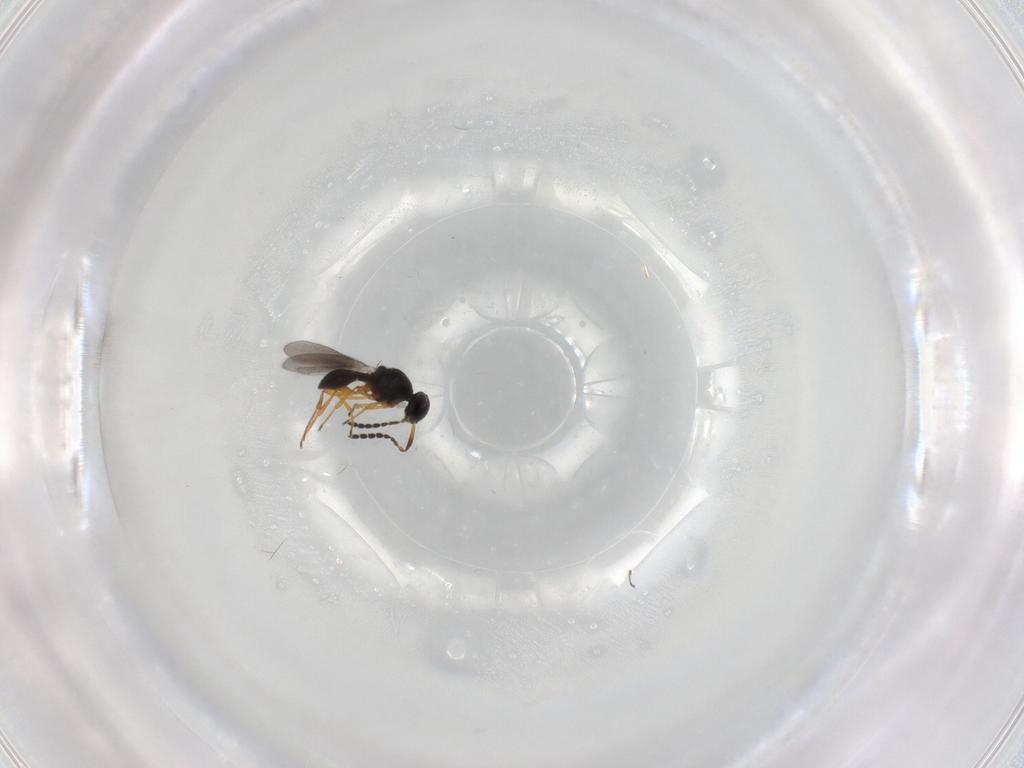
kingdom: Animalia
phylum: Arthropoda
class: Insecta
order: Hymenoptera
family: Platygastridae
